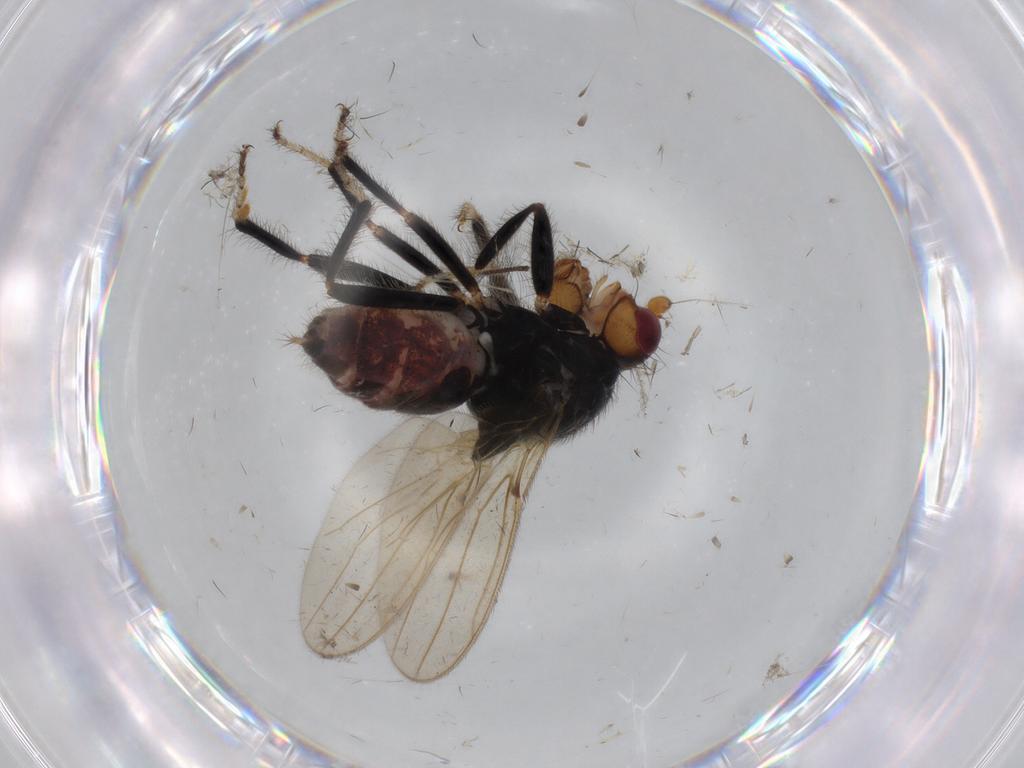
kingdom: Animalia
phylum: Arthropoda
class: Insecta
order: Diptera
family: Sphaeroceridae
